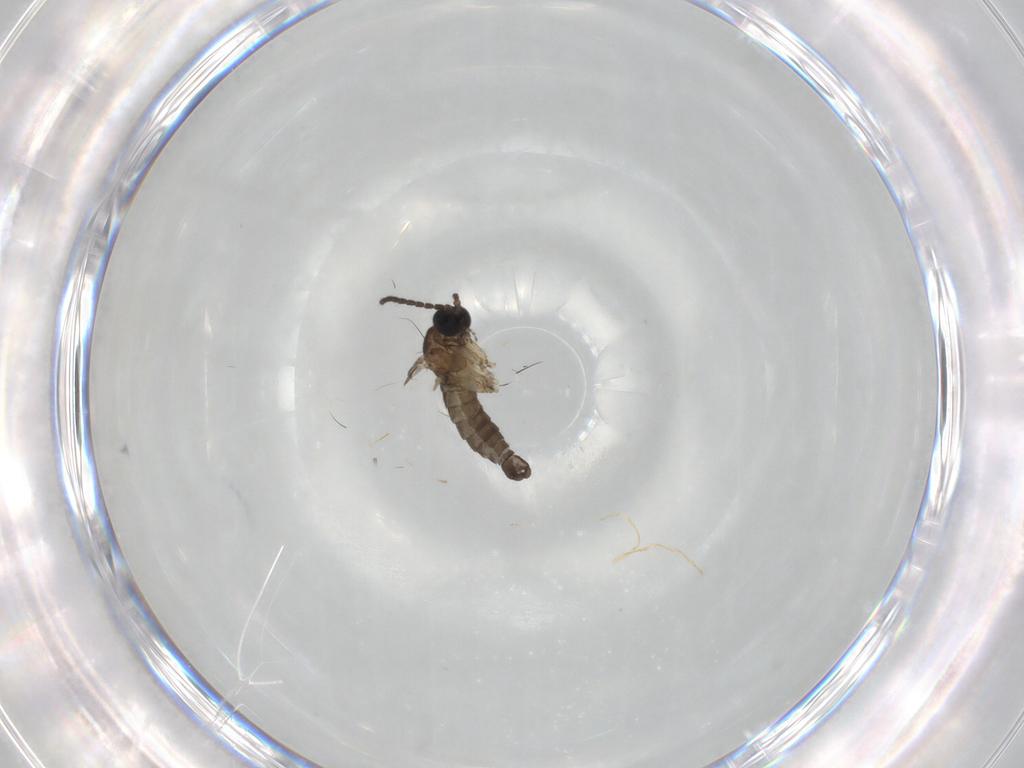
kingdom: Animalia
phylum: Arthropoda
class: Insecta
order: Diptera
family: Sciaridae
